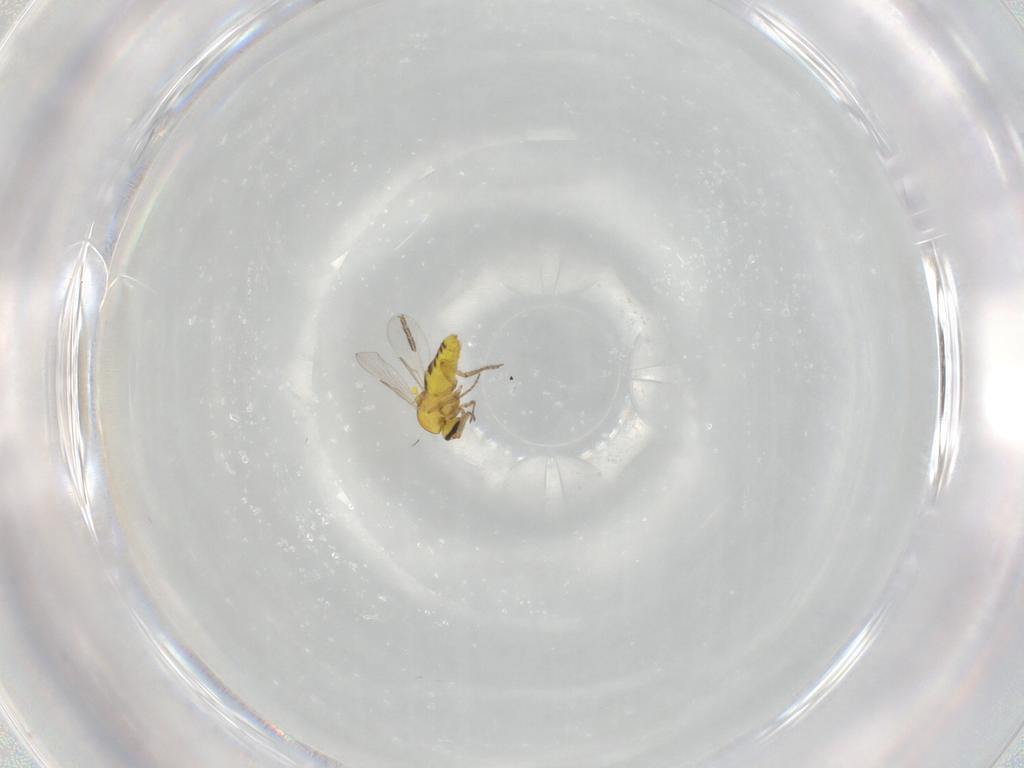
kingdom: Animalia
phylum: Arthropoda
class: Insecta
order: Diptera
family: Ceratopogonidae
